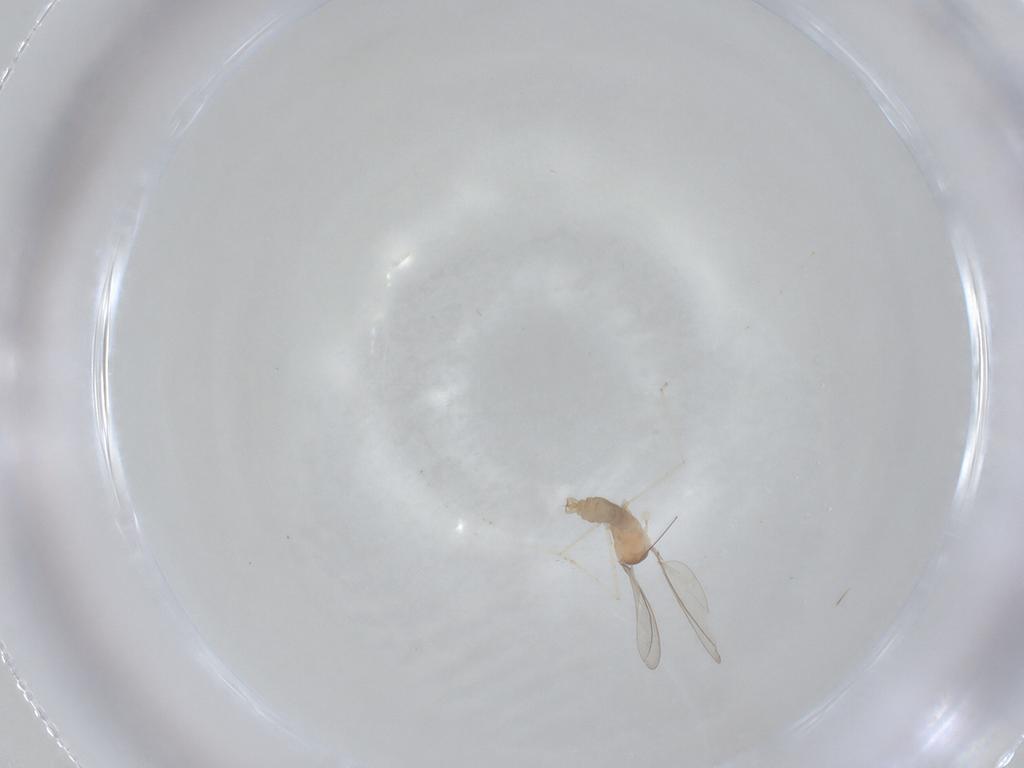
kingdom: Animalia
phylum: Arthropoda
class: Insecta
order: Diptera
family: Cecidomyiidae
